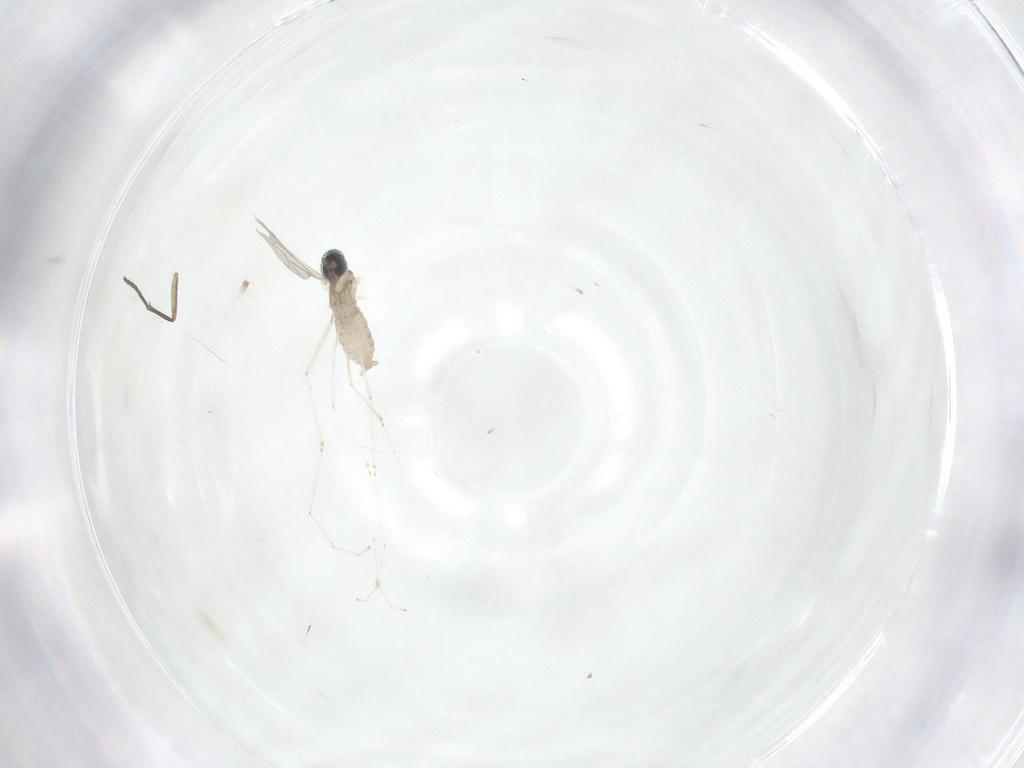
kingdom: Animalia
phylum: Arthropoda
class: Insecta
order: Diptera
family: Cecidomyiidae
